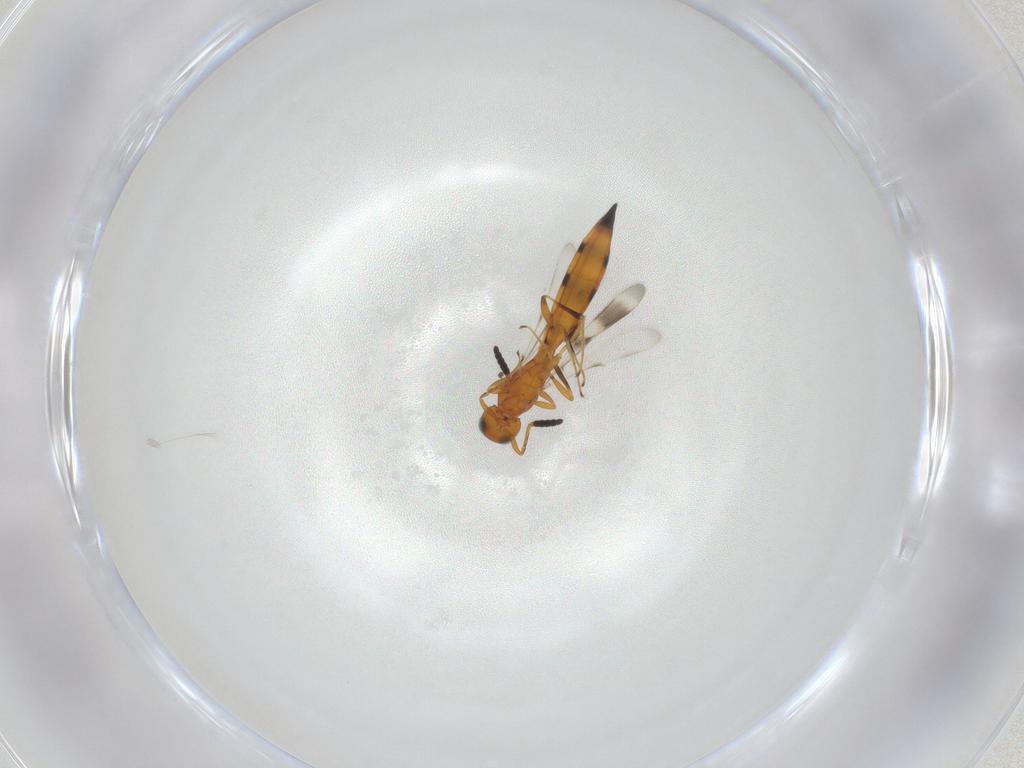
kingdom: Animalia
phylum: Arthropoda
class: Insecta
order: Hymenoptera
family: Scelionidae
